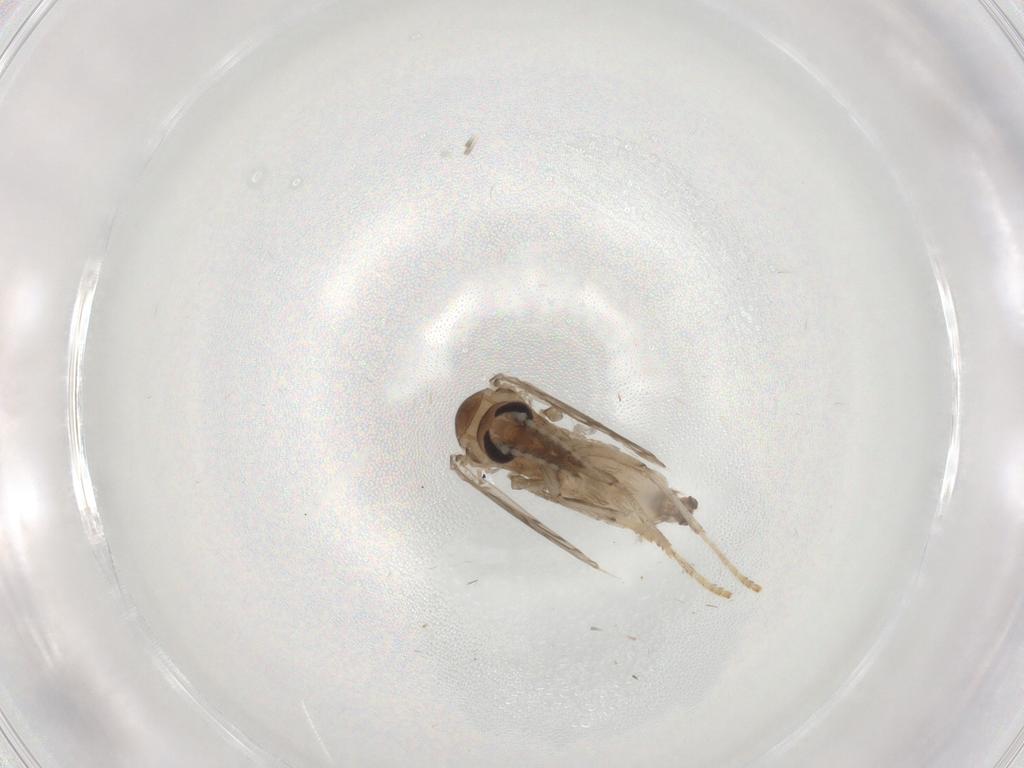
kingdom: Animalia
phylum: Arthropoda
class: Insecta
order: Diptera
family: Psychodidae
